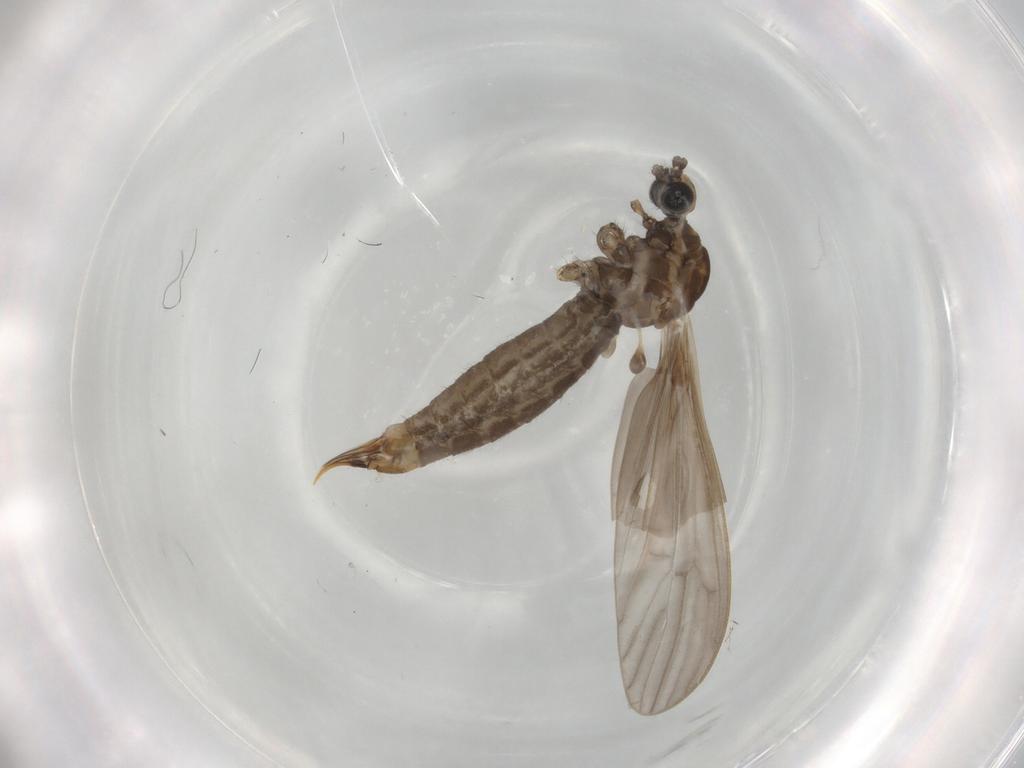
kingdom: Animalia
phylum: Arthropoda
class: Insecta
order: Diptera
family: Limoniidae
